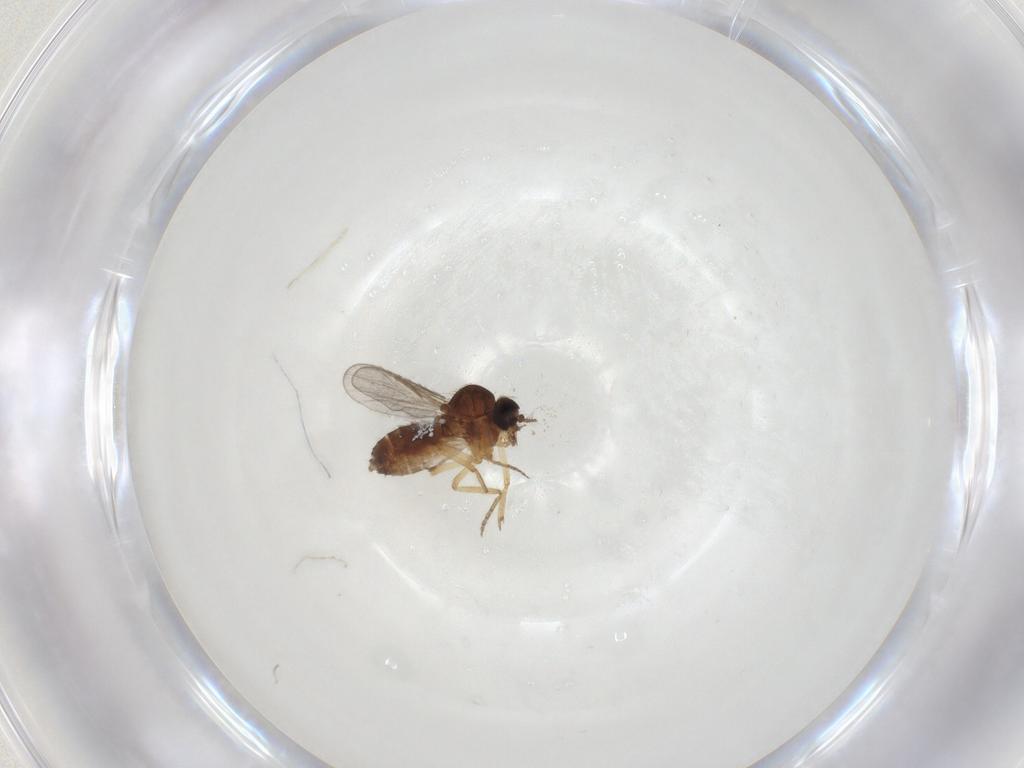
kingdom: Animalia
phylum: Arthropoda
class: Insecta
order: Diptera
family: Ceratopogonidae
